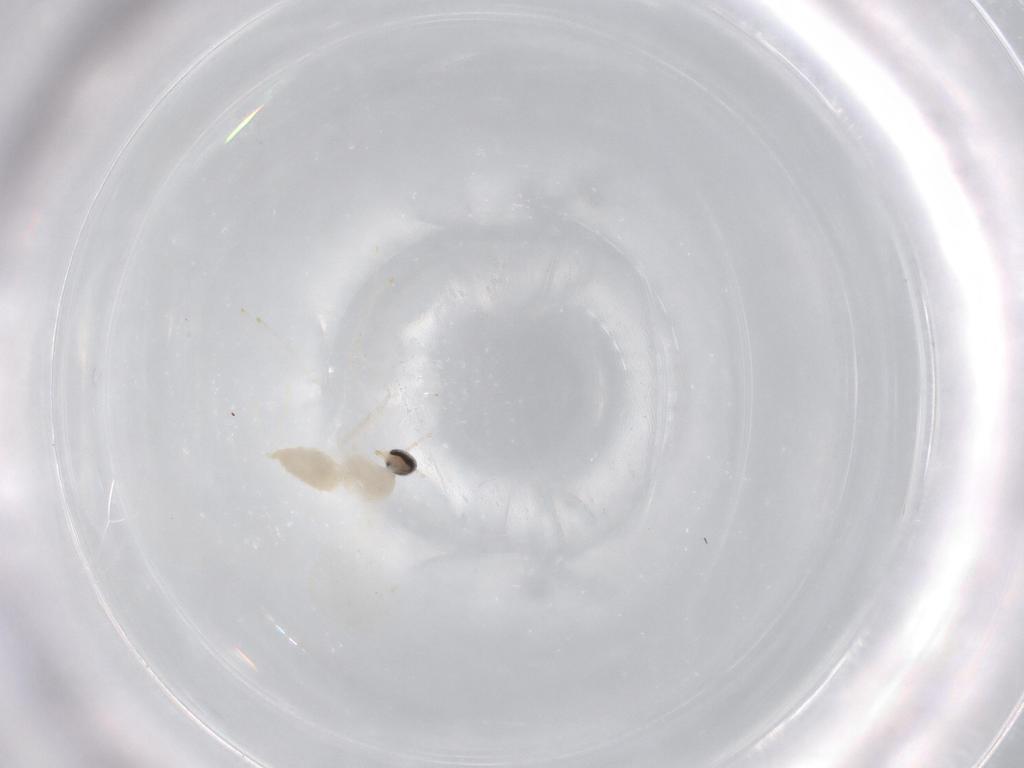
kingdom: Animalia
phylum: Arthropoda
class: Insecta
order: Diptera
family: Cecidomyiidae
